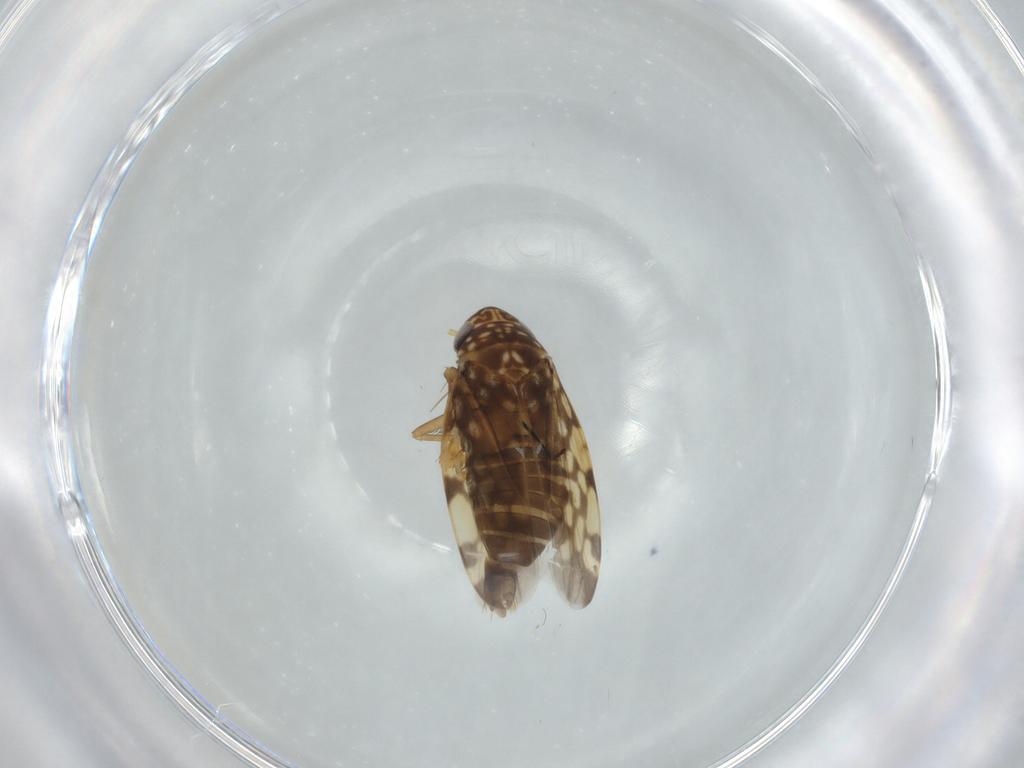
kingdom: Animalia
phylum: Arthropoda
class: Insecta
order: Hemiptera
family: Cicadellidae
